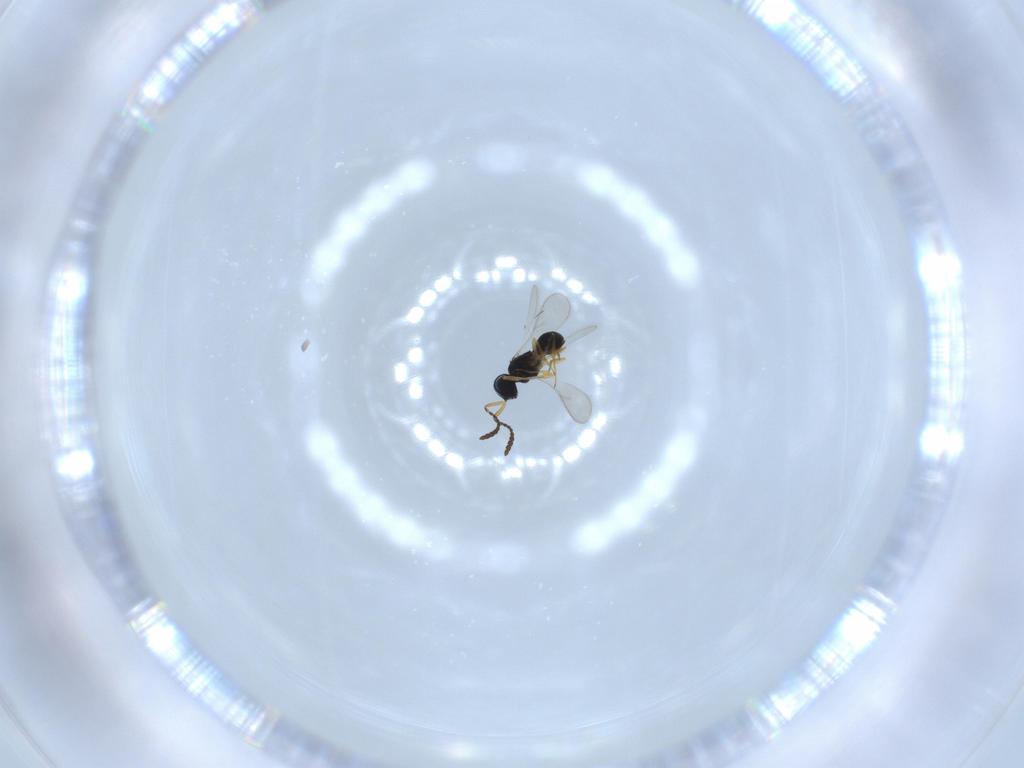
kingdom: Animalia
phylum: Arthropoda
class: Insecta
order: Hymenoptera
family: Scelionidae
